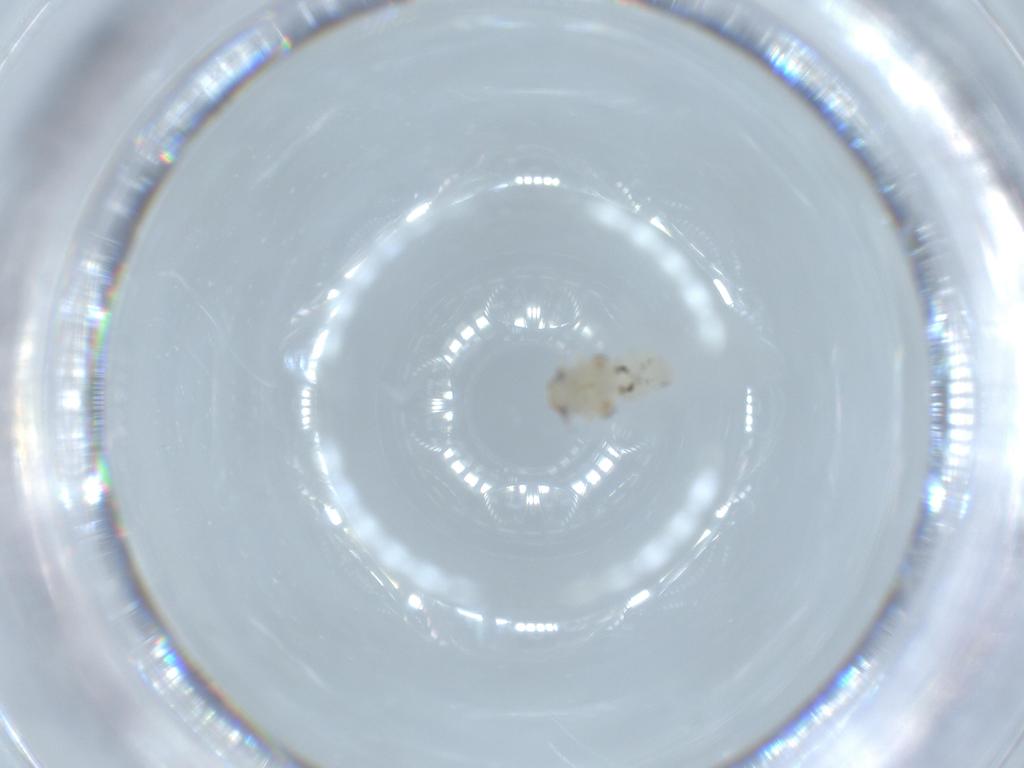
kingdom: Animalia
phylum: Arthropoda
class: Insecta
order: Hemiptera
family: Nogodinidae
